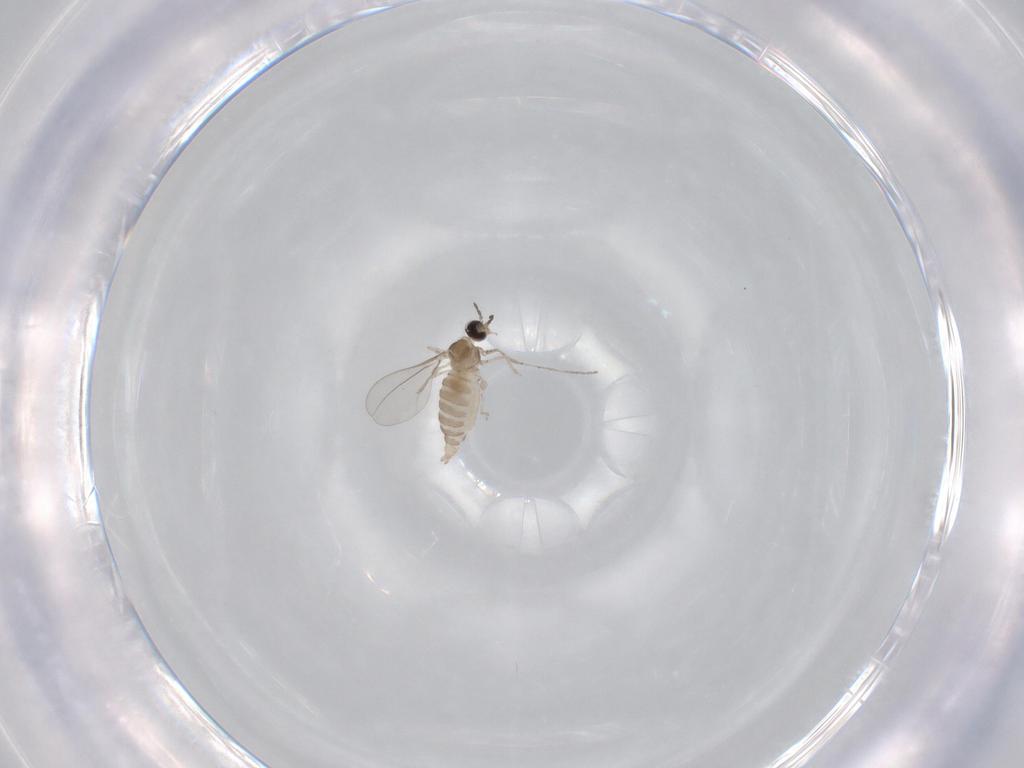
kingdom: Animalia
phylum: Arthropoda
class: Insecta
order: Diptera
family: Cecidomyiidae
